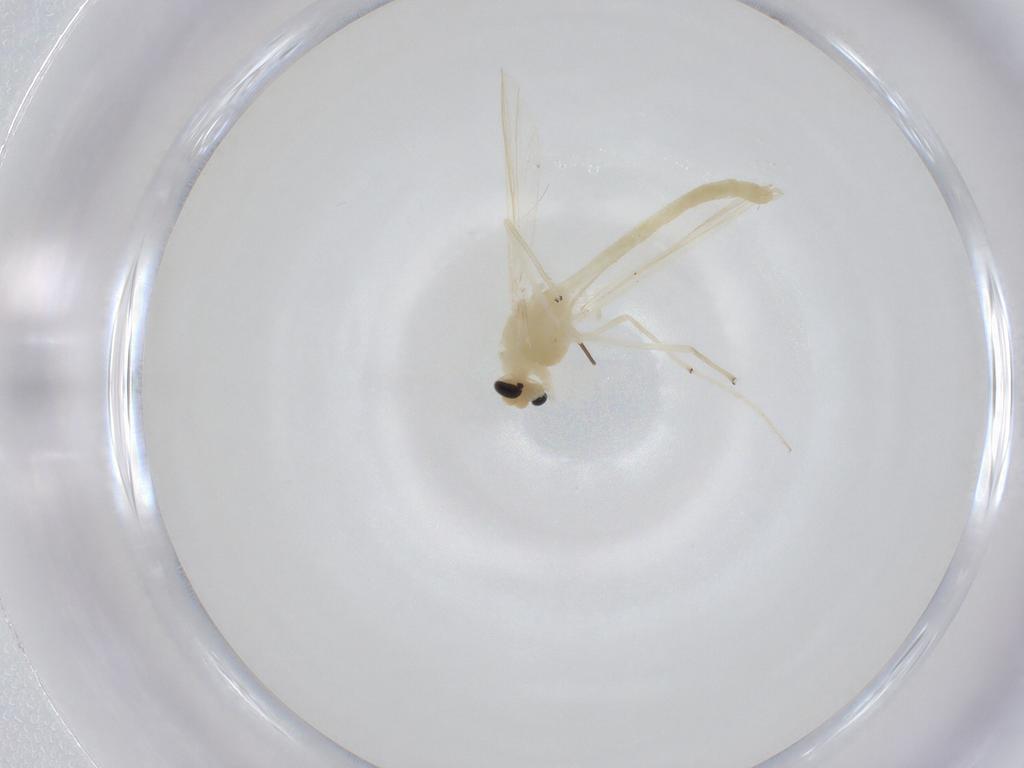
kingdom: Animalia
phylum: Arthropoda
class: Insecta
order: Diptera
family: Chironomidae
